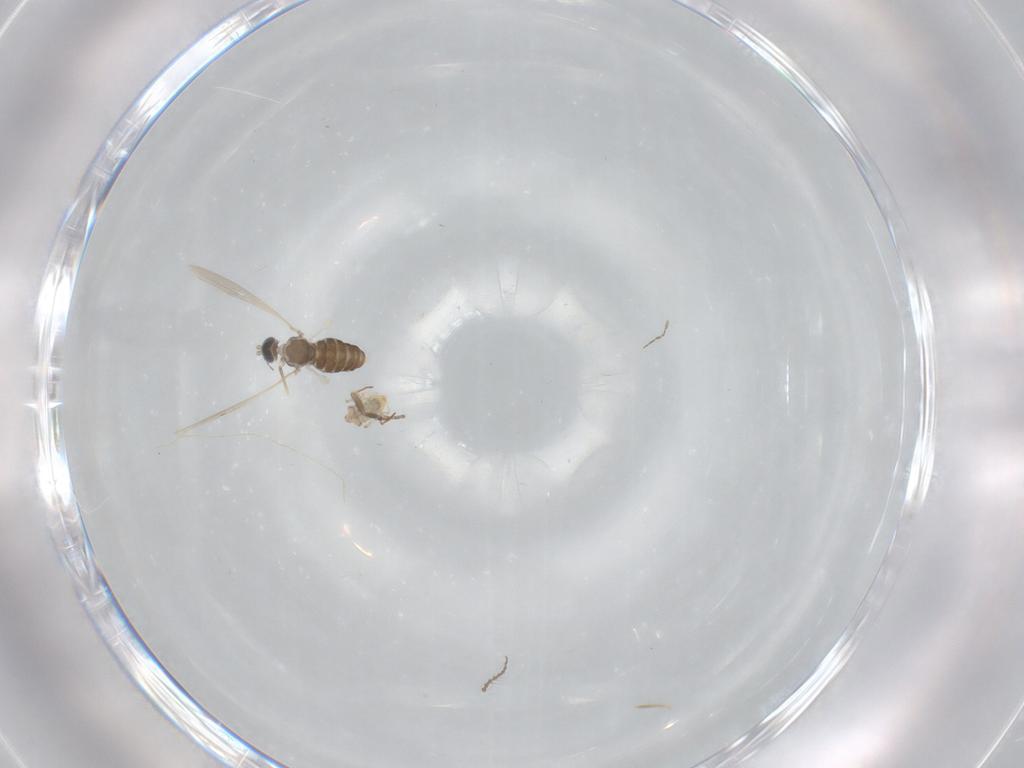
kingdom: Animalia
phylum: Arthropoda
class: Insecta
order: Diptera
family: Cecidomyiidae
